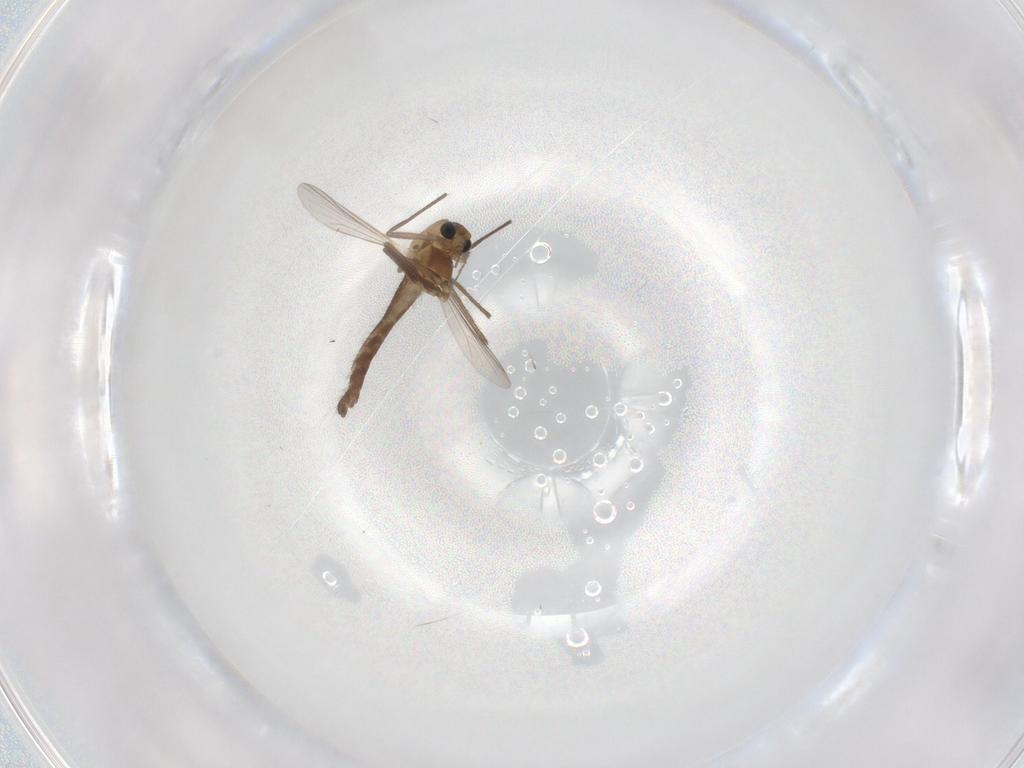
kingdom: Animalia
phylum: Arthropoda
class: Insecta
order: Diptera
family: Chironomidae
